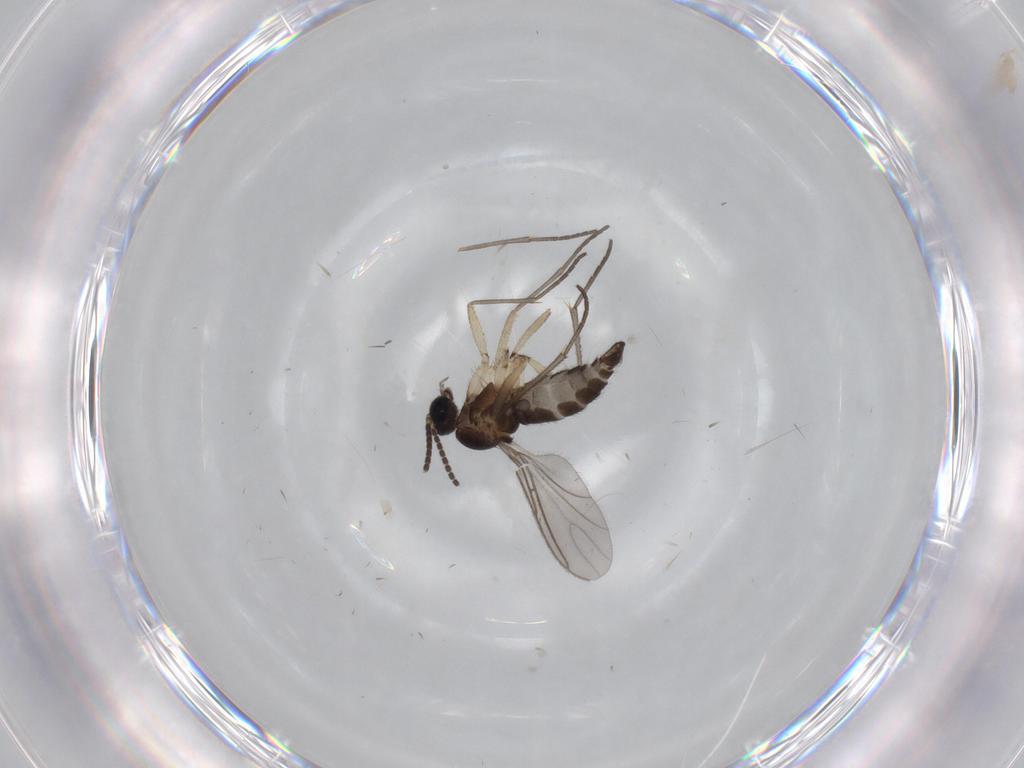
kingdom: Animalia
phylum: Arthropoda
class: Insecta
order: Diptera
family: Sciaridae
